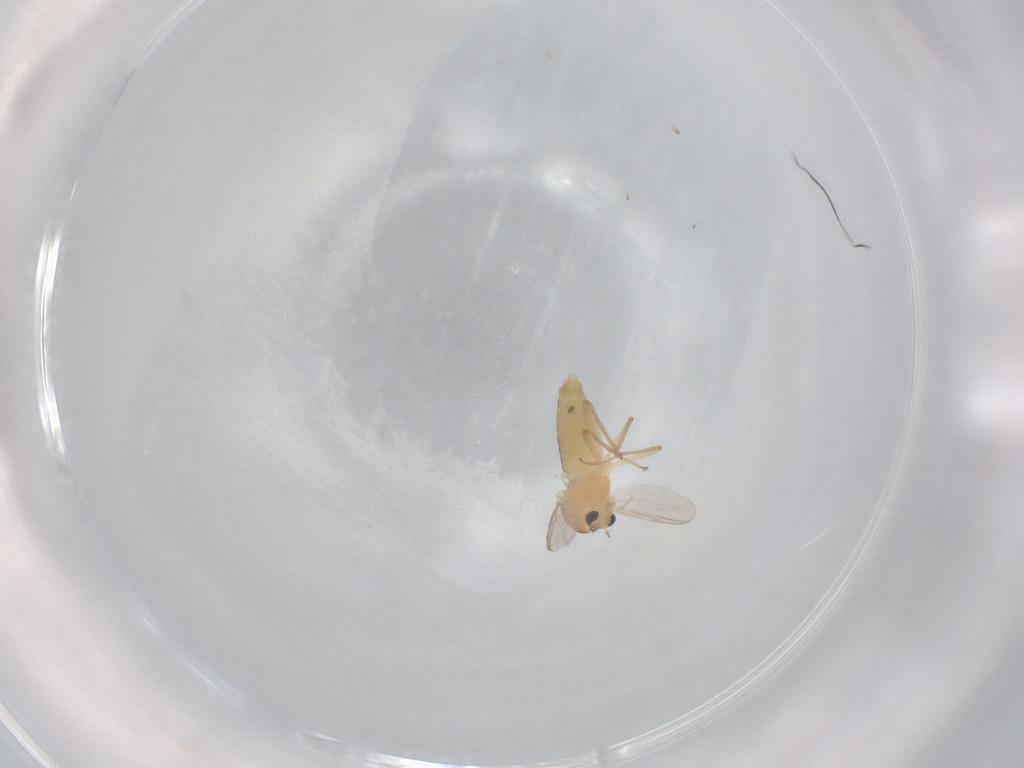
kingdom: Animalia
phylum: Arthropoda
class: Insecta
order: Diptera
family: Chironomidae
